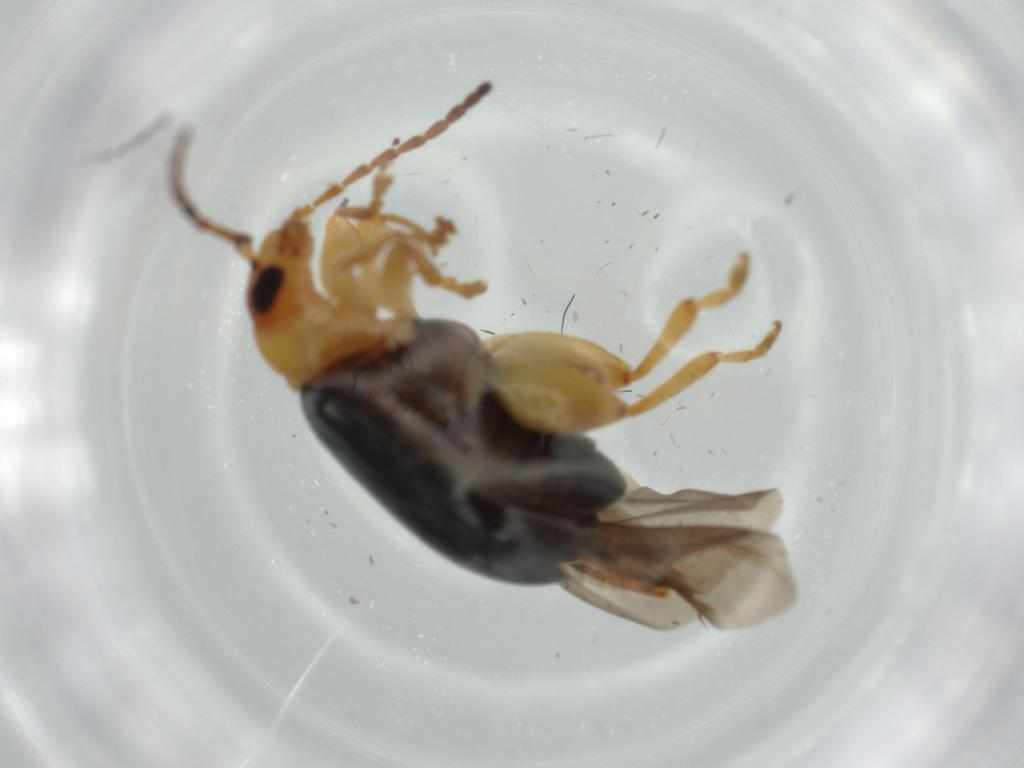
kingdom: Animalia
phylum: Arthropoda
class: Insecta
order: Coleoptera
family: Chrysomelidae
